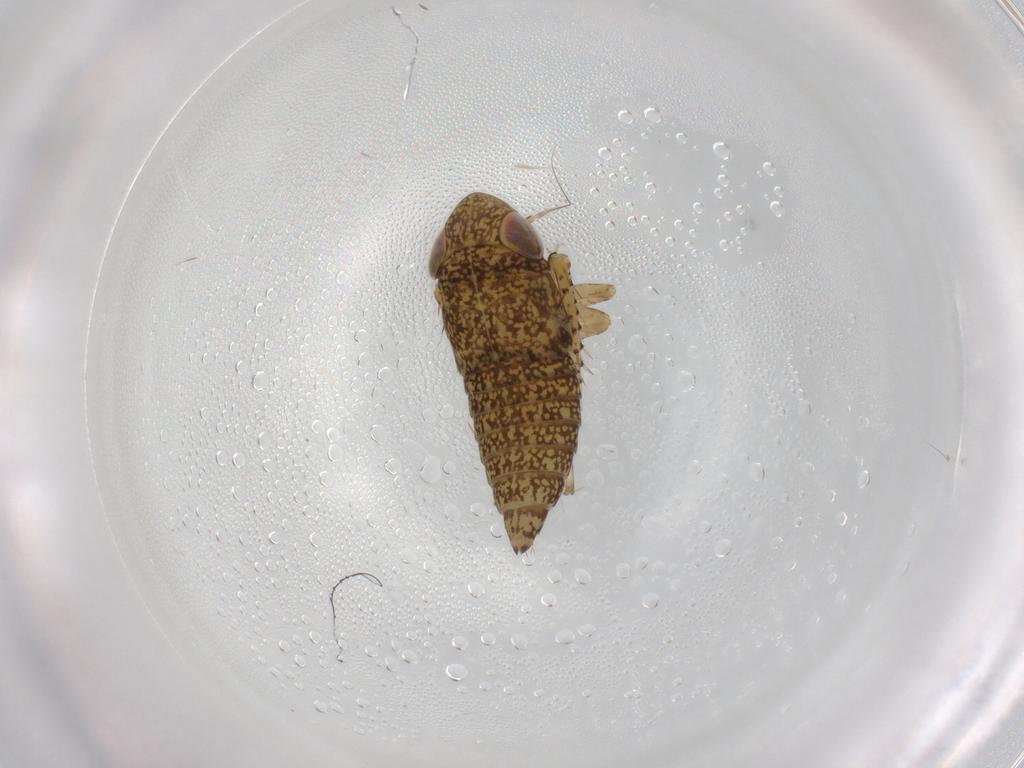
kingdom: Animalia
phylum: Arthropoda
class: Insecta
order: Hemiptera
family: Cicadellidae
